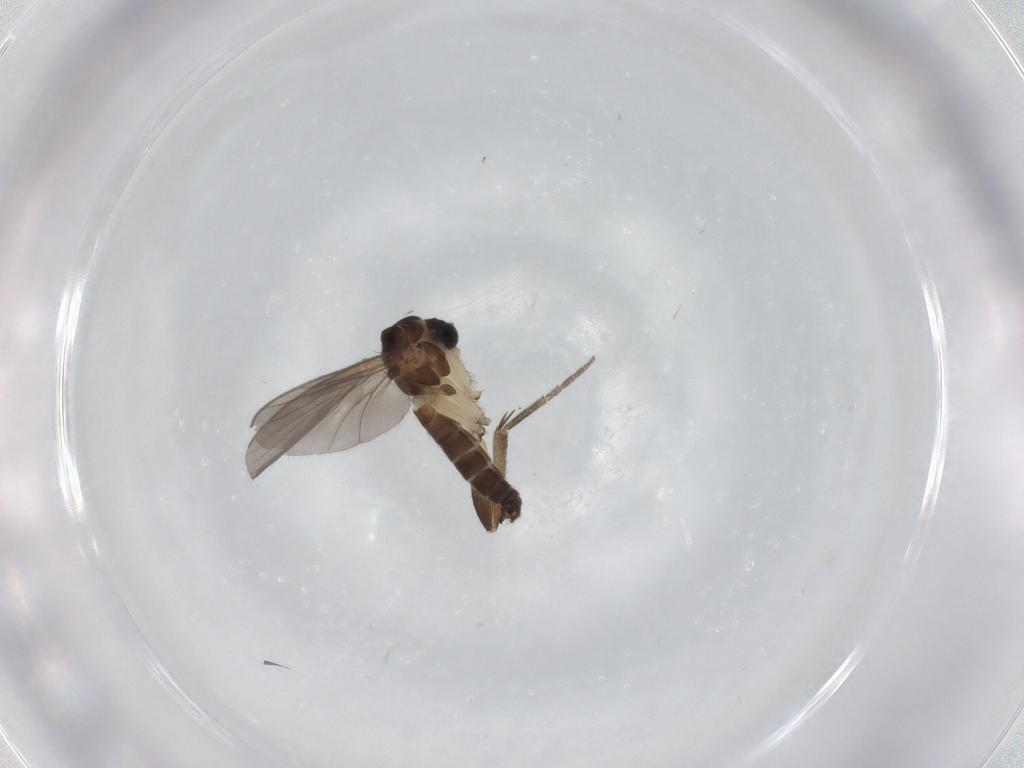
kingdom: Animalia
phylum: Arthropoda
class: Insecta
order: Diptera
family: Mycetophilidae
